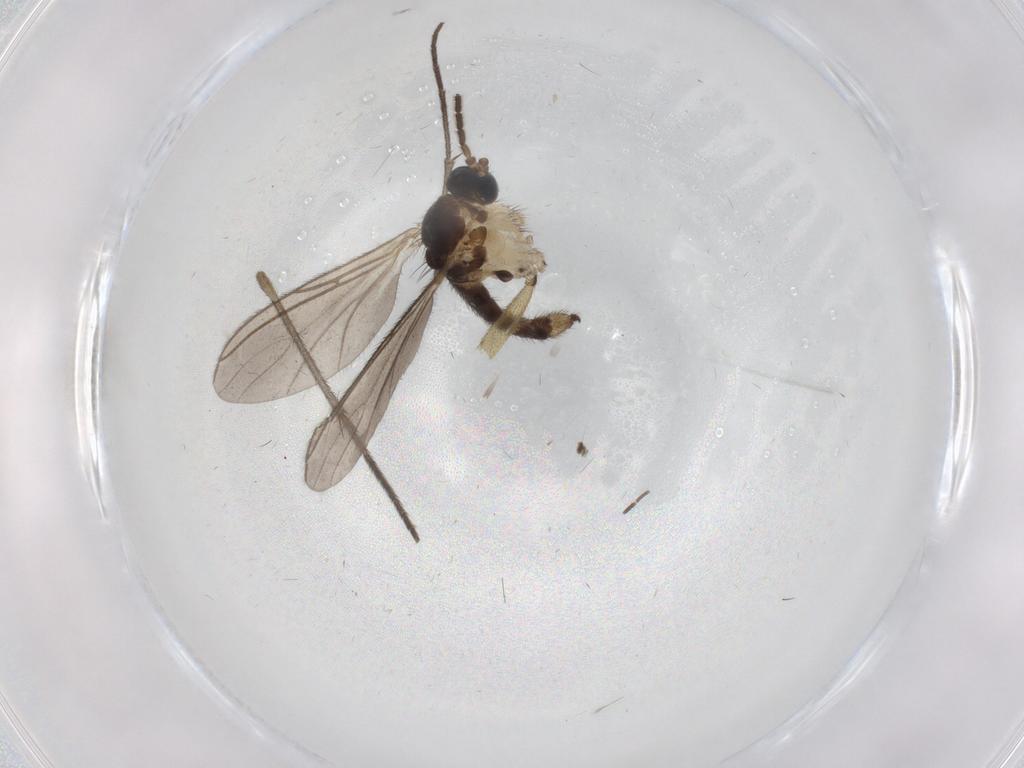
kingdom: Animalia
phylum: Arthropoda
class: Insecta
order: Diptera
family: Sciaridae
